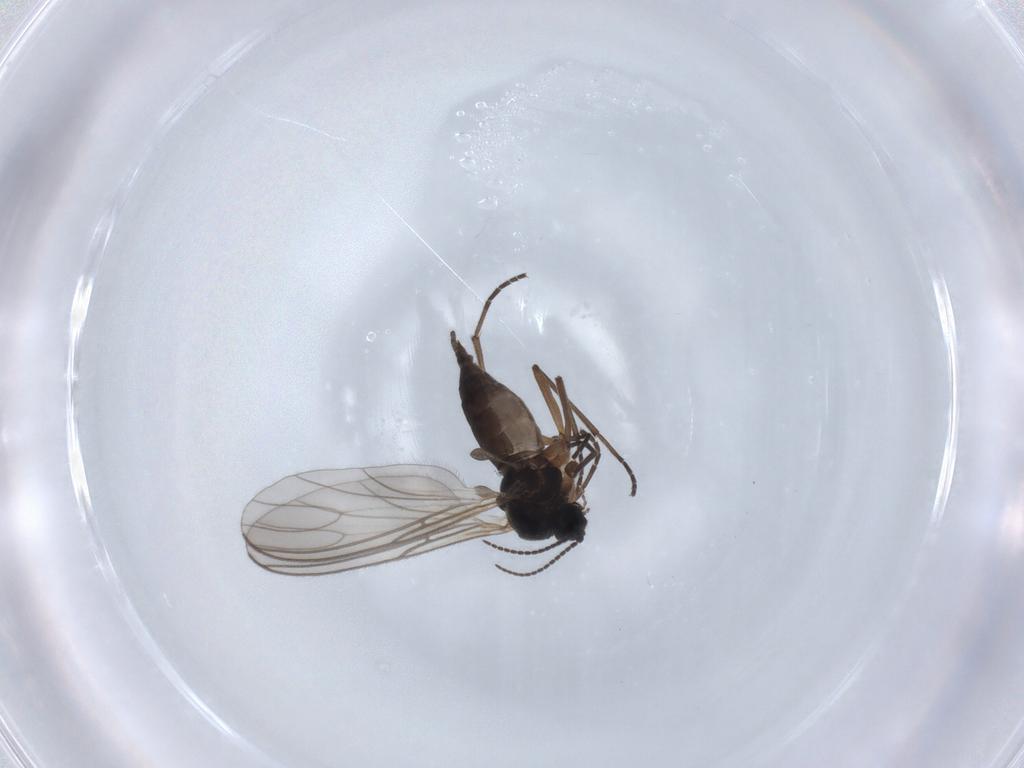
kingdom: Animalia
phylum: Arthropoda
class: Insecta
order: Diptera
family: Sciaridae
